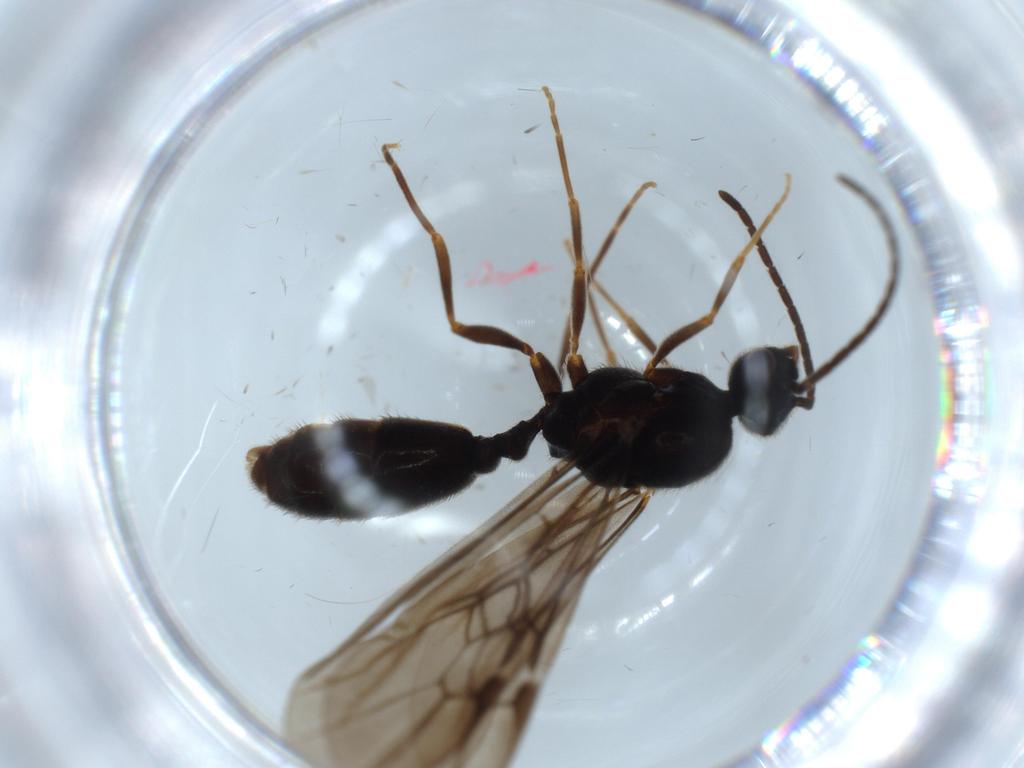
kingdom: Animalia
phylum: Arthropoda
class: Insecta
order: Hymenoptera
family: Formicidae
